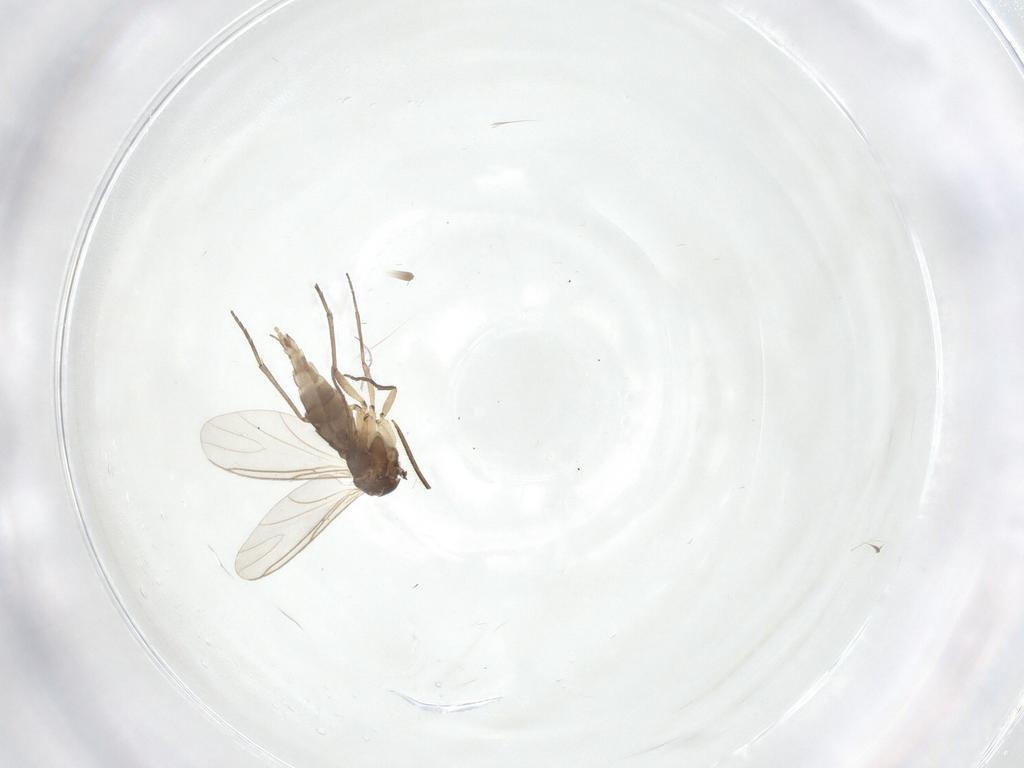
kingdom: Animalia
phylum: Arthropoda
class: Insecta
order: Diptera
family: Sciaridae
